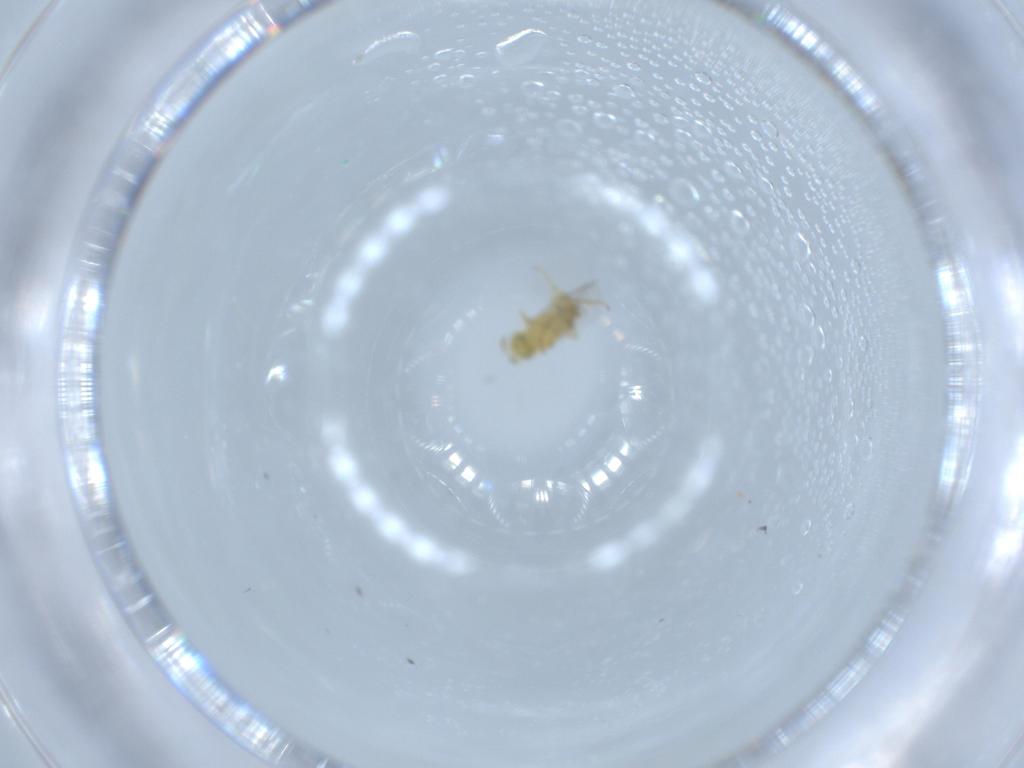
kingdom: Animalia
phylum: Arthropoda
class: Insecta
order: Hymenoptera
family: Encyrtidae
